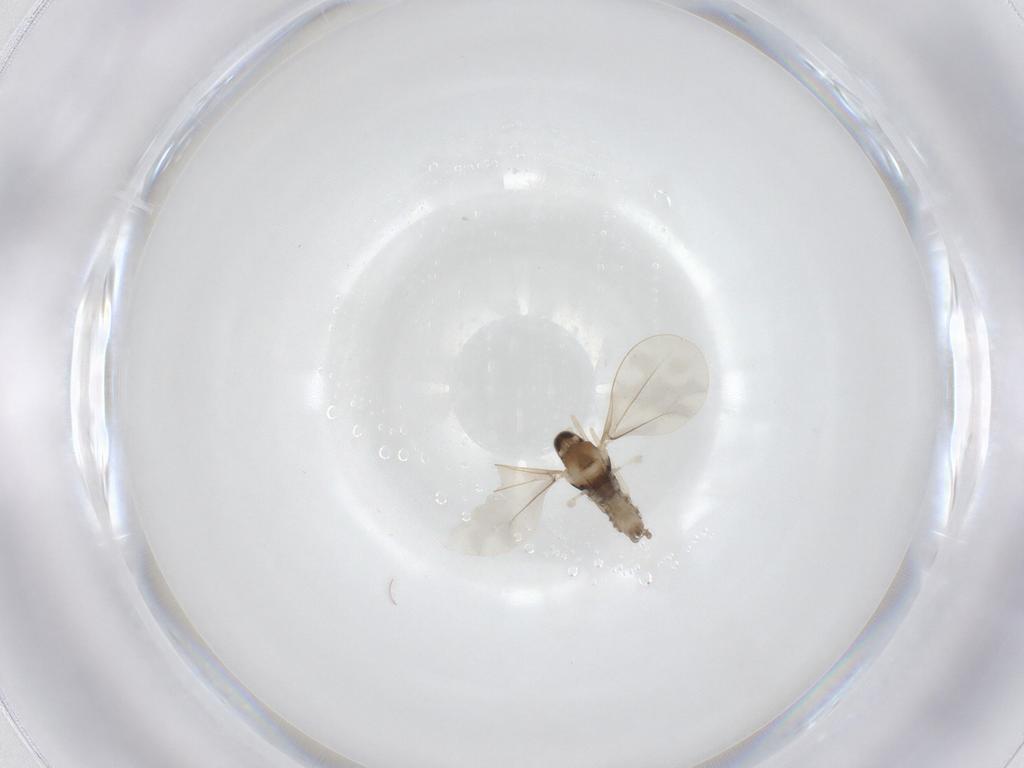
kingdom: Animalia
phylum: Arthropoda
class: Insecta
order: Diptera
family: Cecidomyiidae
